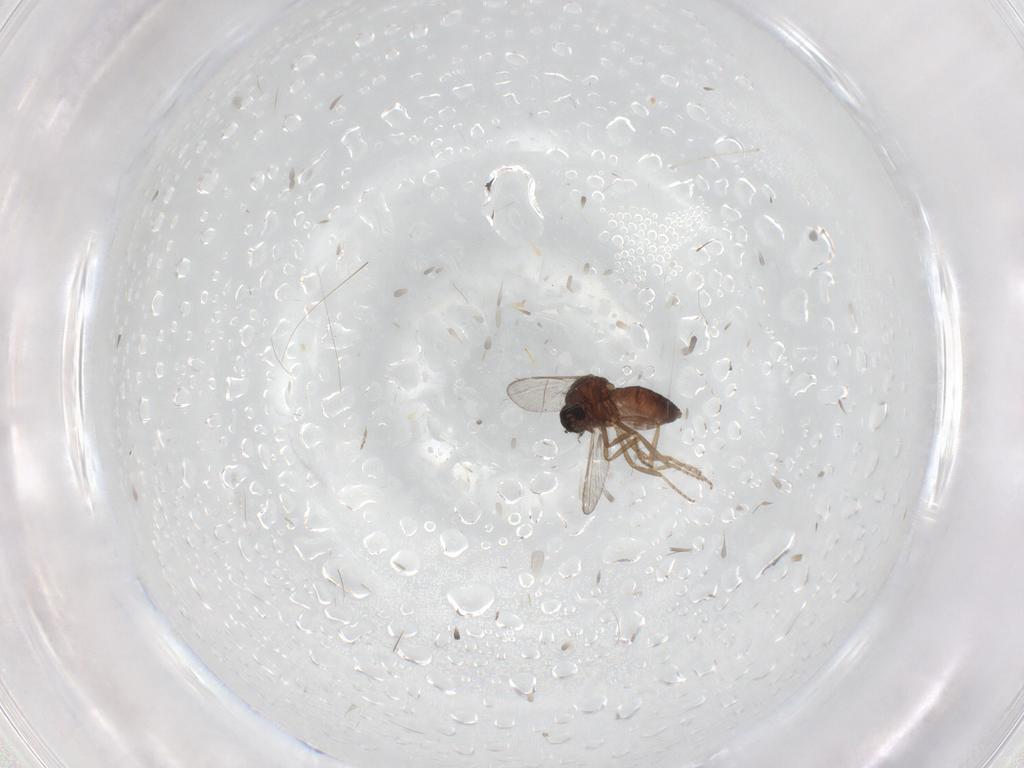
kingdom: Animalia
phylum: Arthropoda
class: Insecta
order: Diptera
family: Ceratopogonidae
